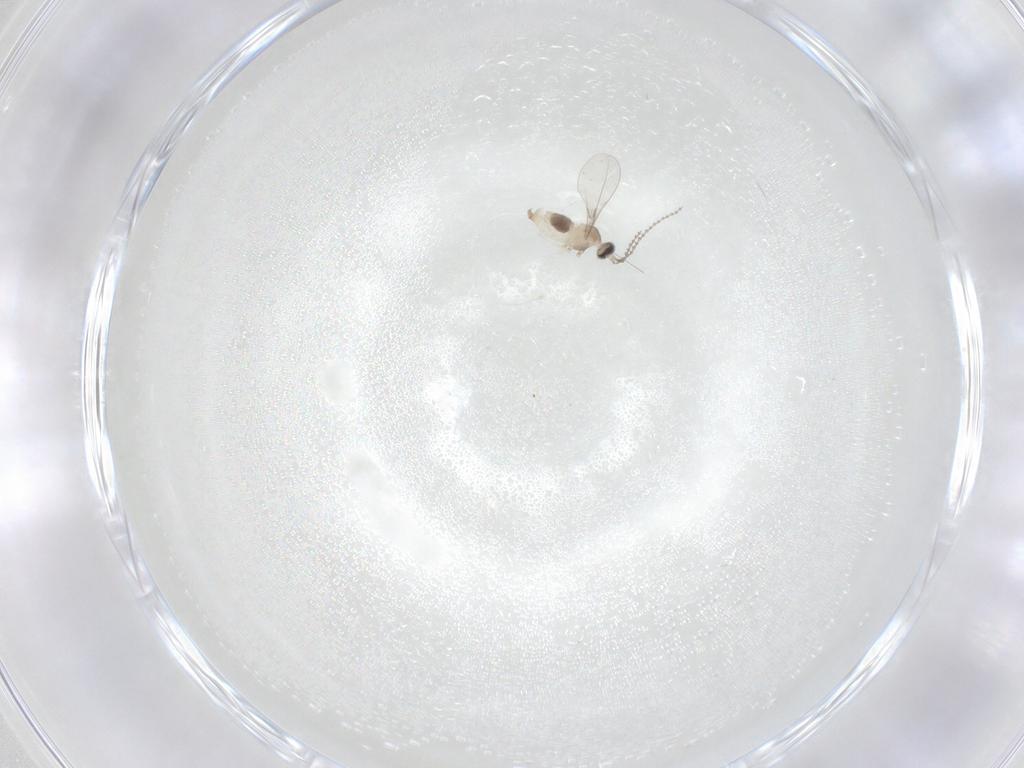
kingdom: Animalia
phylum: Arthropoda
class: Insecta
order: Diptera
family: Cecidomyiidae
